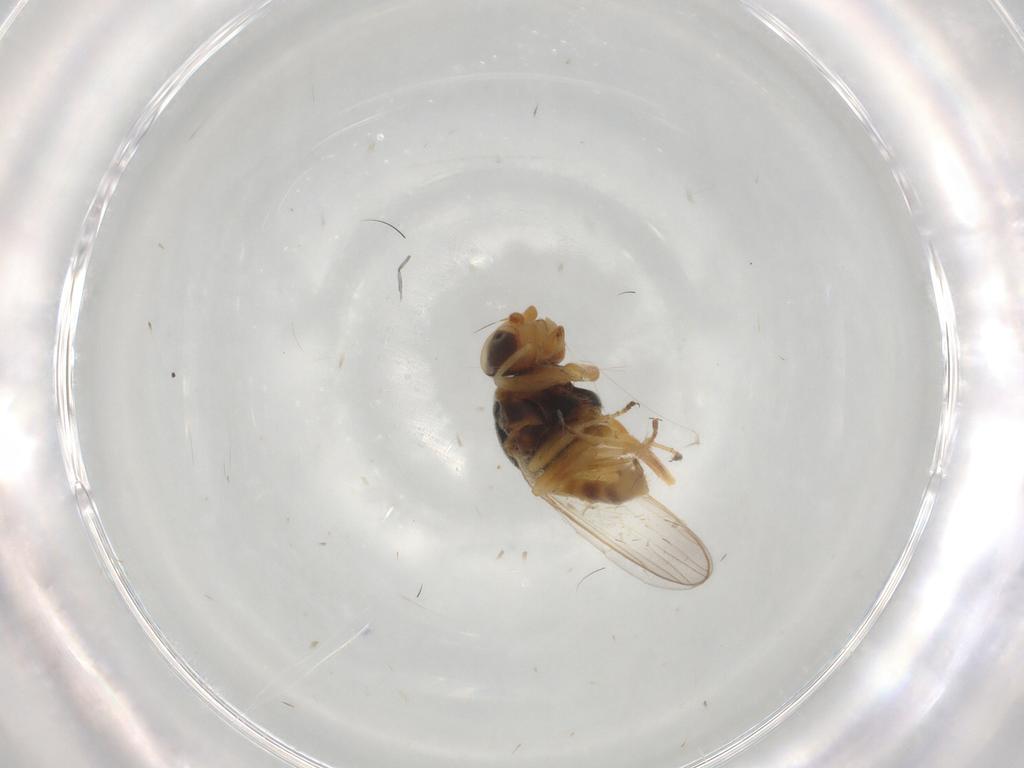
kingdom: Animalia
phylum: Arthropoda
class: Insecta
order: Diptera
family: Chloropidae
